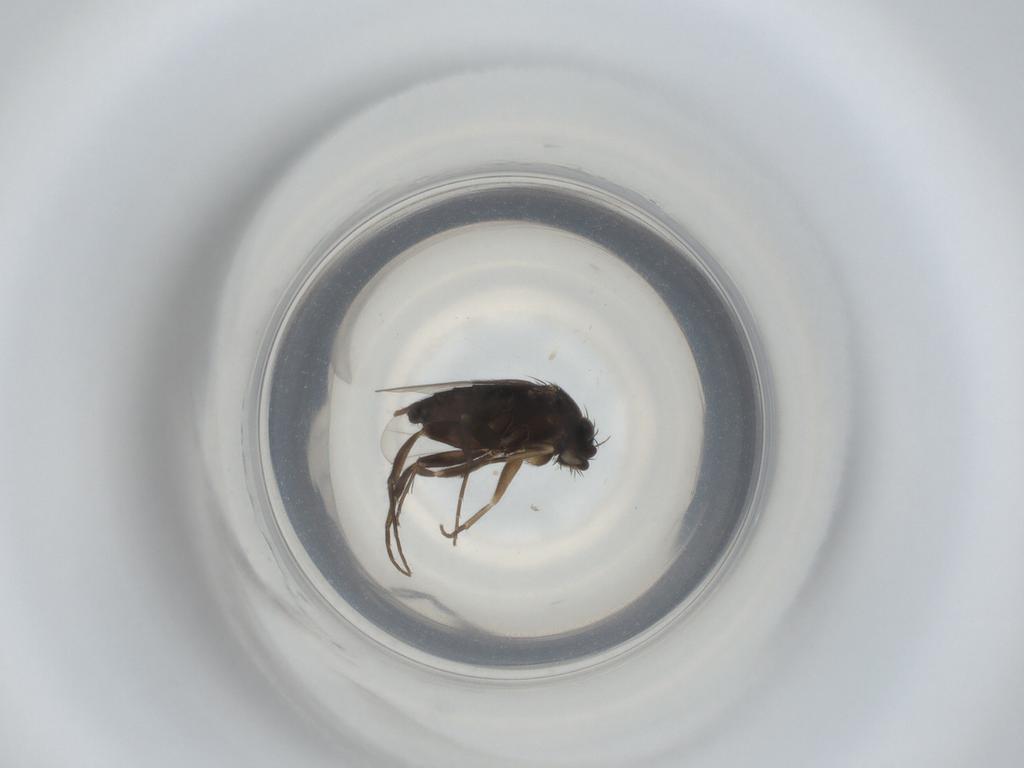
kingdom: Animalia
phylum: Arthropoda
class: Insecta
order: Diptera
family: Phoridae
